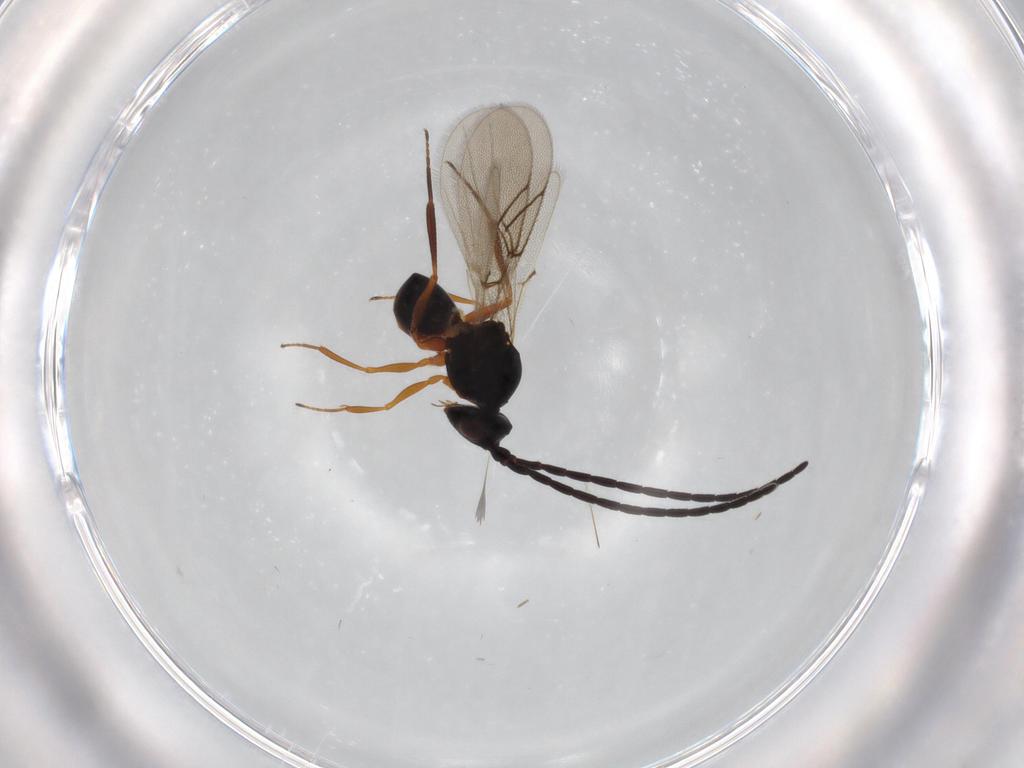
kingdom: Animalia
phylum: Arthropoda
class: Insecta
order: Hymenoptera
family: Figitidae
